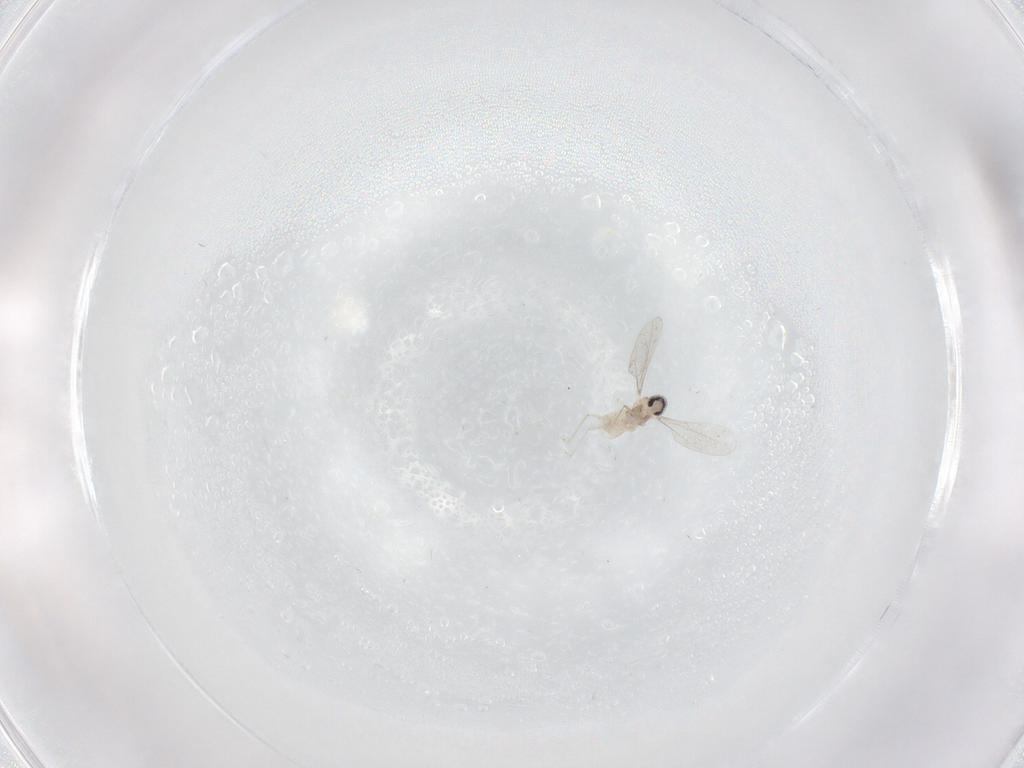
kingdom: Animalia
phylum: Arthropoda
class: Insecta
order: Diptera
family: Cecidomyiidae
